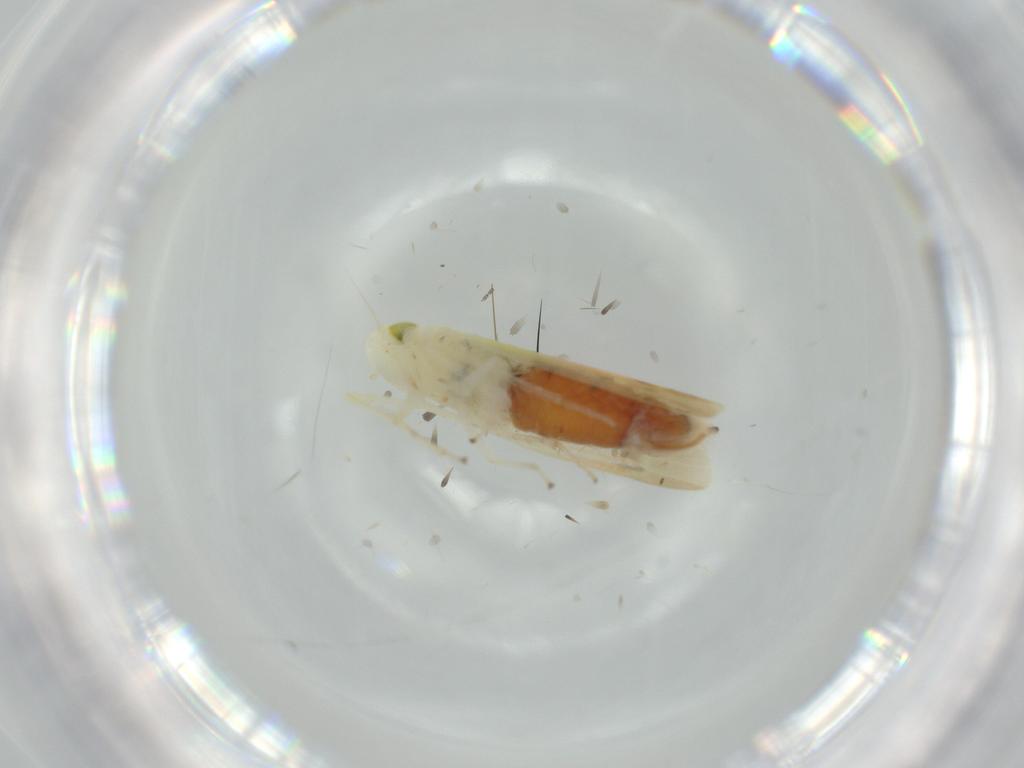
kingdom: Animalia
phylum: Arthropoda
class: Insecta
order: Hemiptera
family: Cicadellidae
